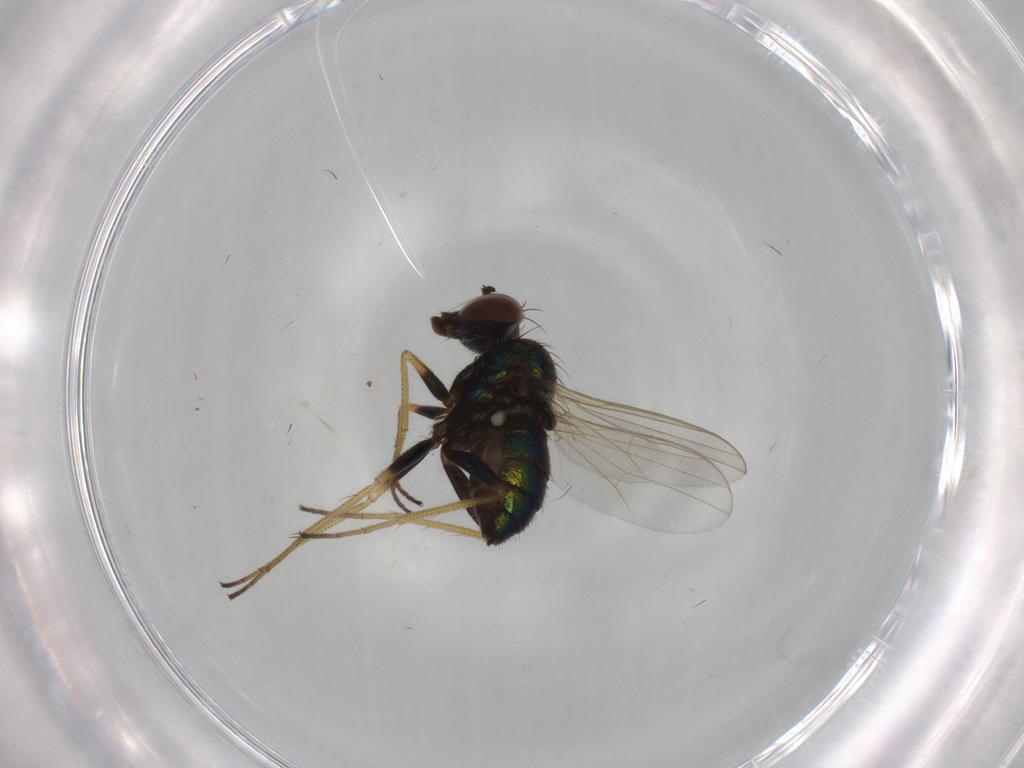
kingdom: Animalia
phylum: Arthropoda
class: Insecta
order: Diptera
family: Dolichopodidae
